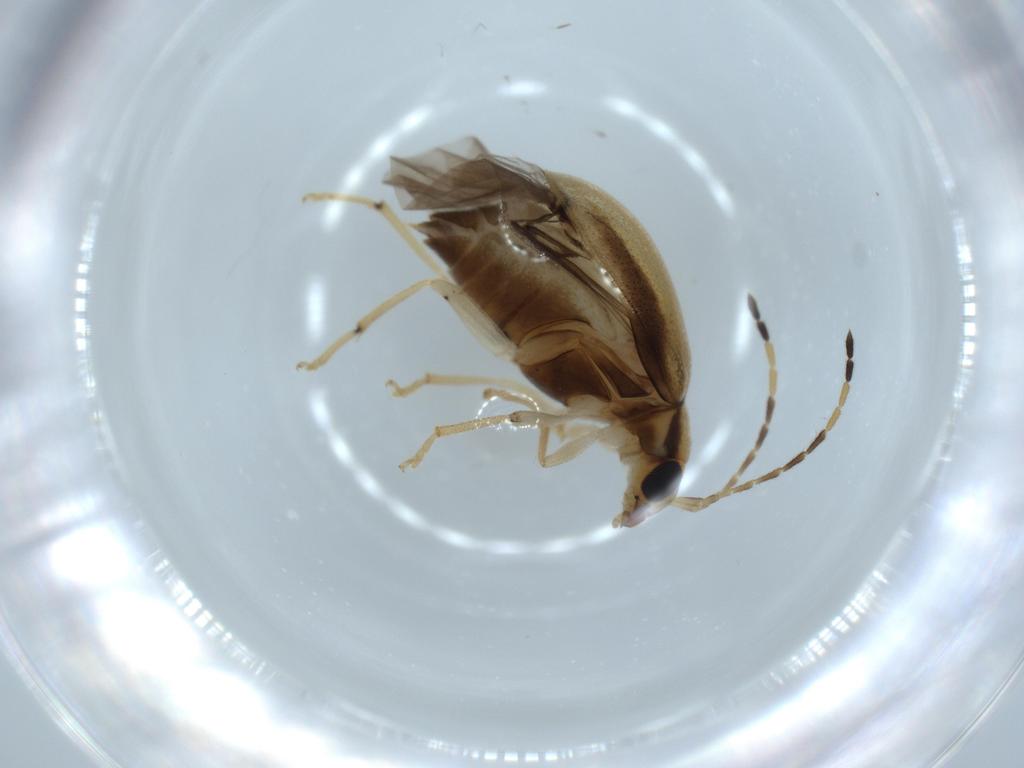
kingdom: Animalia
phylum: Arthropoda
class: Insecta
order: Coleoptera
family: Chrysomelidae
